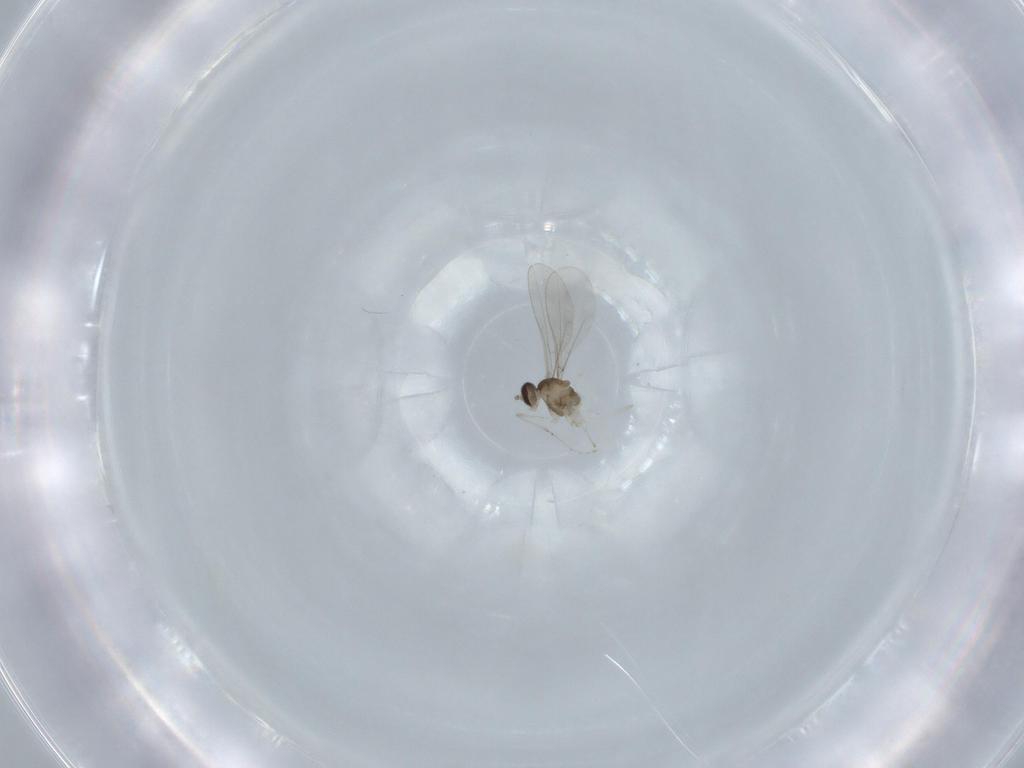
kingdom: Animalia
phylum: Arthropoda
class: Insecta
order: Diptera
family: Cecidomyiidae
